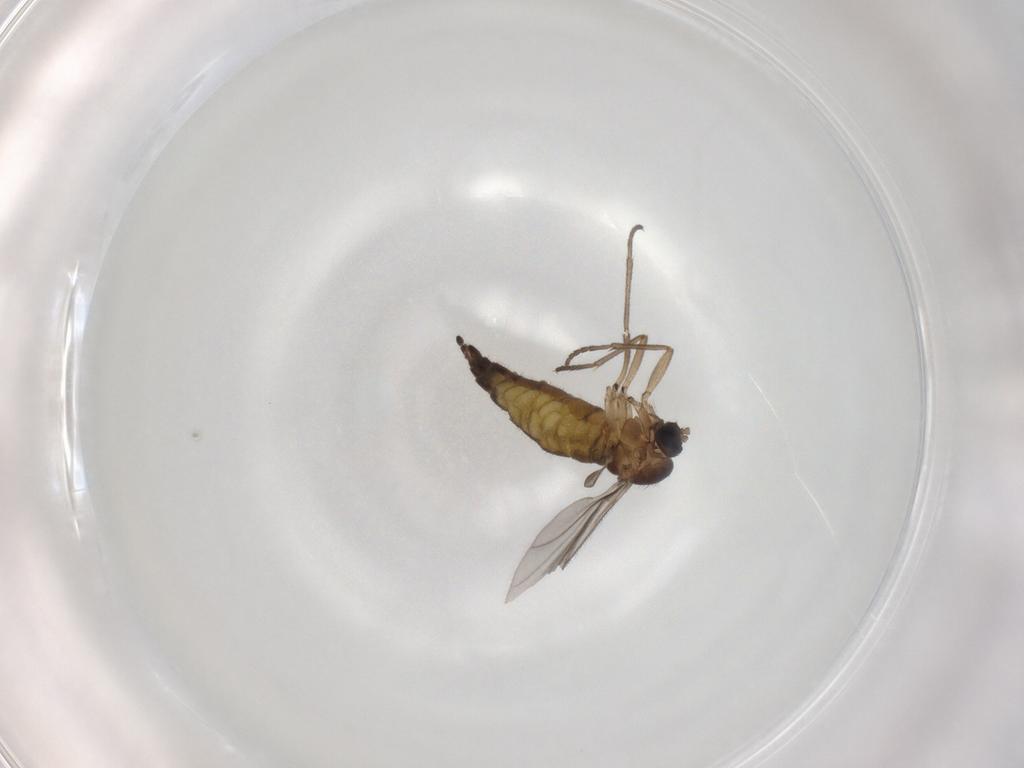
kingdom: Animalia
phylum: Arthropoda
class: Insecta
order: Diptera
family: Sciaridae
